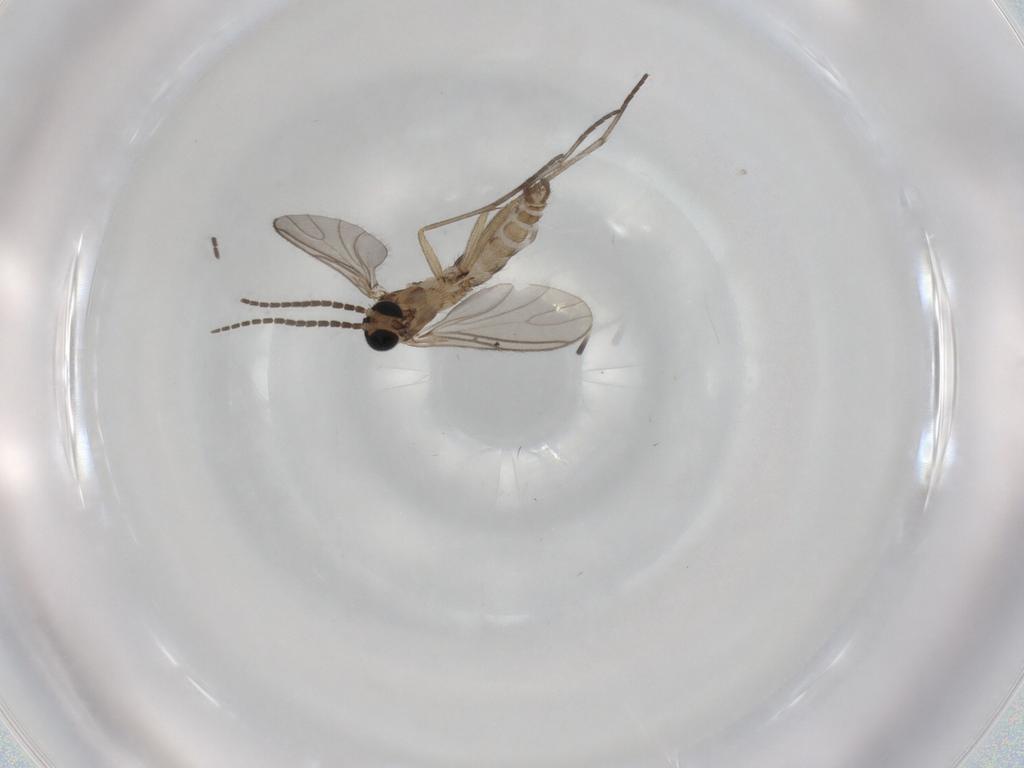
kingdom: Animalia
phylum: Arthropoda
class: Insecta
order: Diptera
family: Sciaridae
